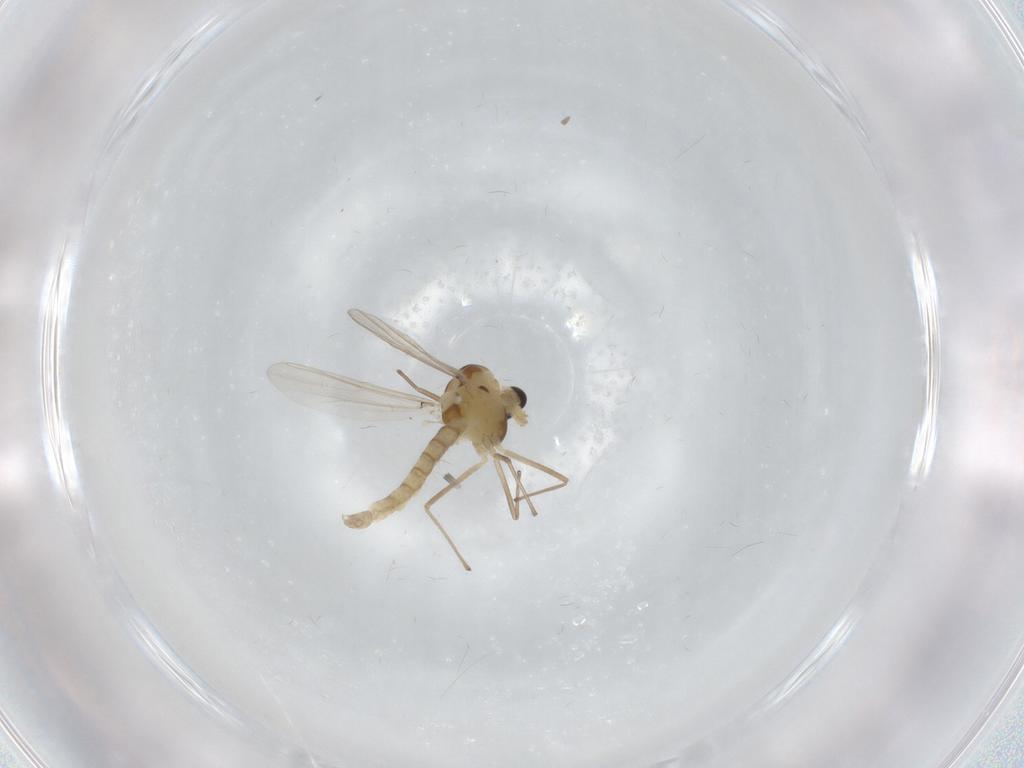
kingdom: Animalia
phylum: Arthropoda
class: Insecta
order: Diptera
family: Chironomidae
